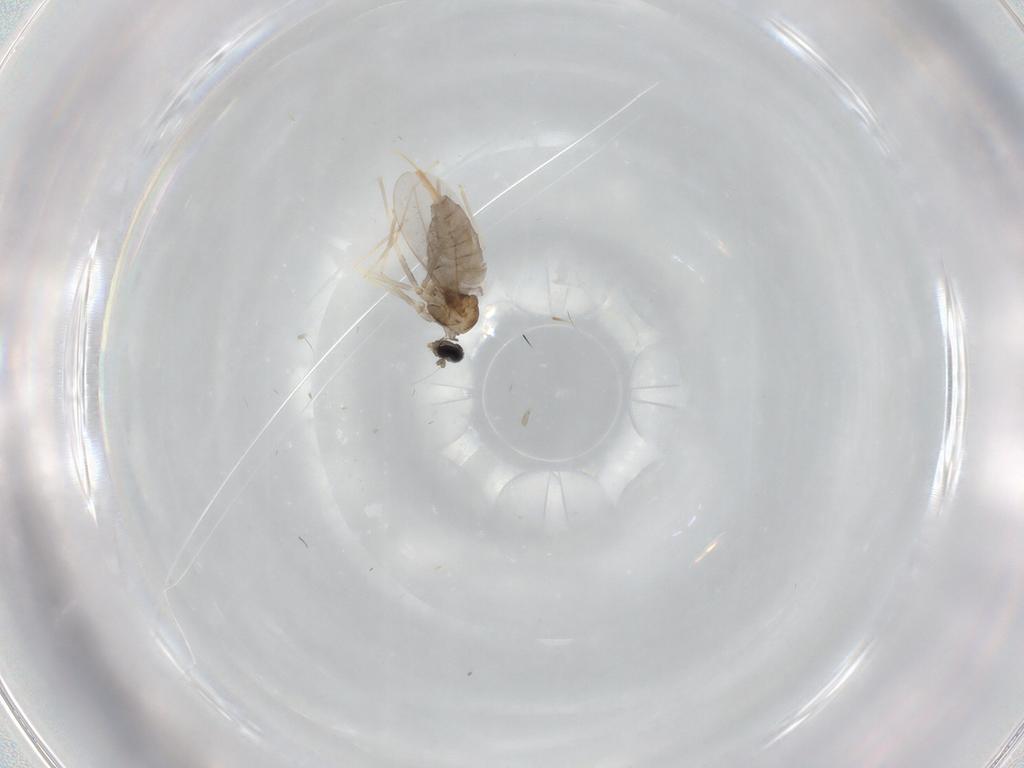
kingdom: Animalia
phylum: Arthropoda
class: Insecta
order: Diptera
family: Cecidomyiidae
